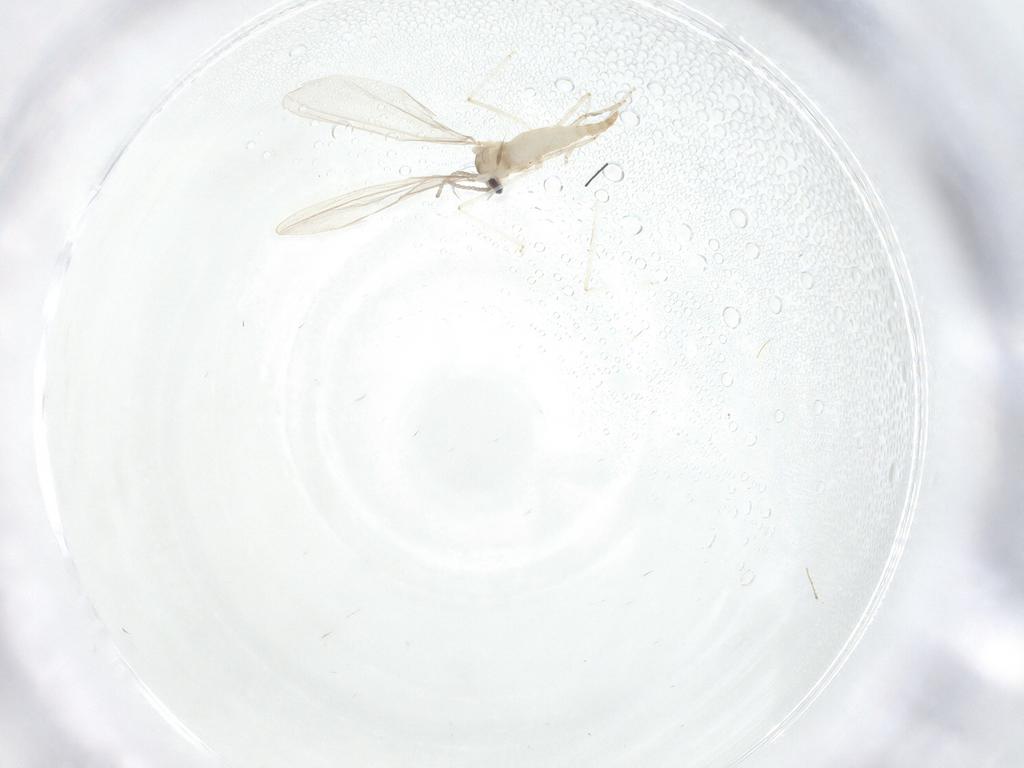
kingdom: Animalia
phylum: Arthropoda
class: Insecta
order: Diptera
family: Cecidomyiidae
